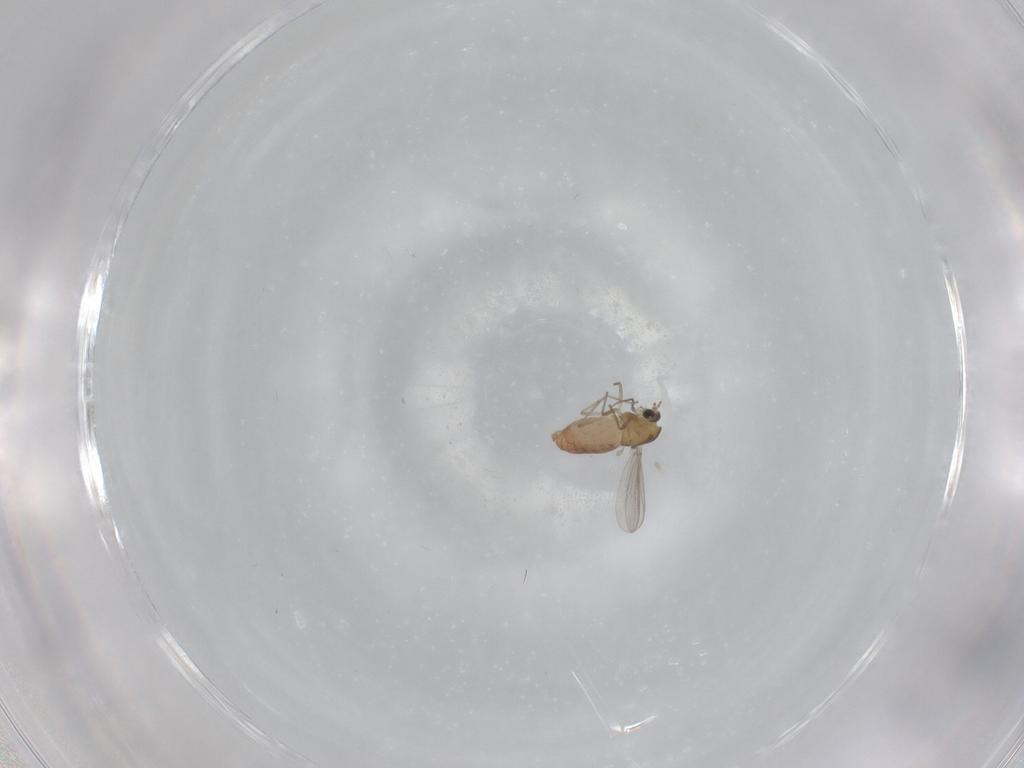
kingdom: Animalia
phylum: Arthropoda
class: Insecta
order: Diptera
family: Chironomidae
